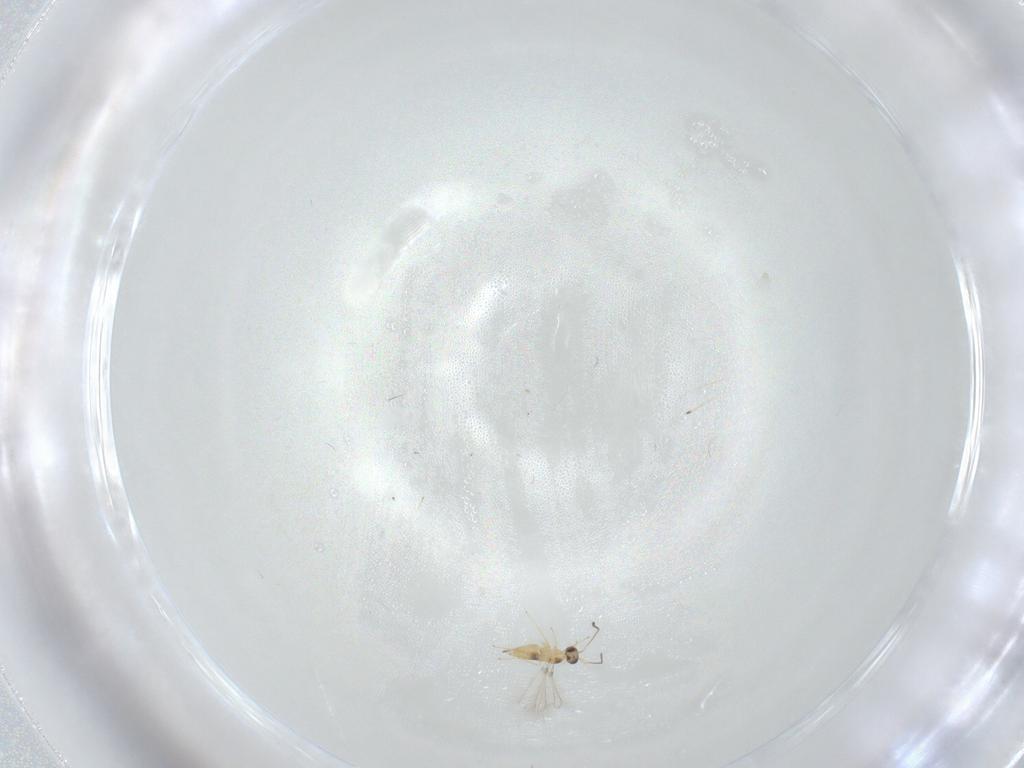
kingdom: Animalia
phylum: Arthropoda
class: Insecta
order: Hymenoptera
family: Mymaridae
